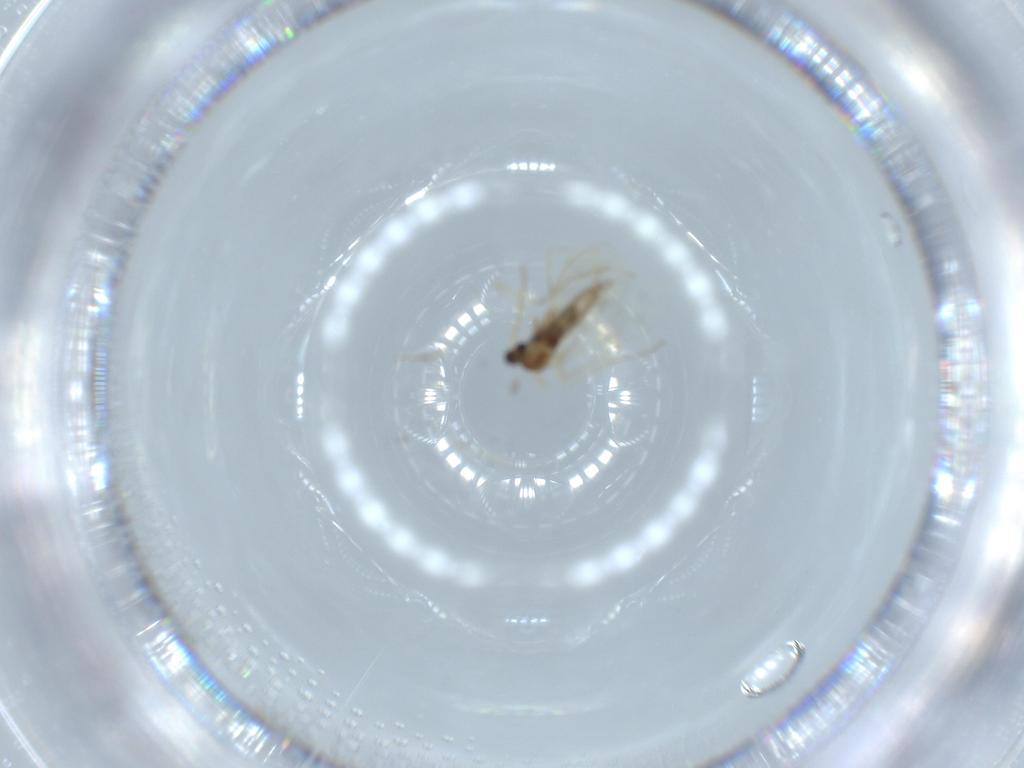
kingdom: Animalia
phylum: Arthropoda
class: Insecta
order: Diptera
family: Cecidomyiidae
